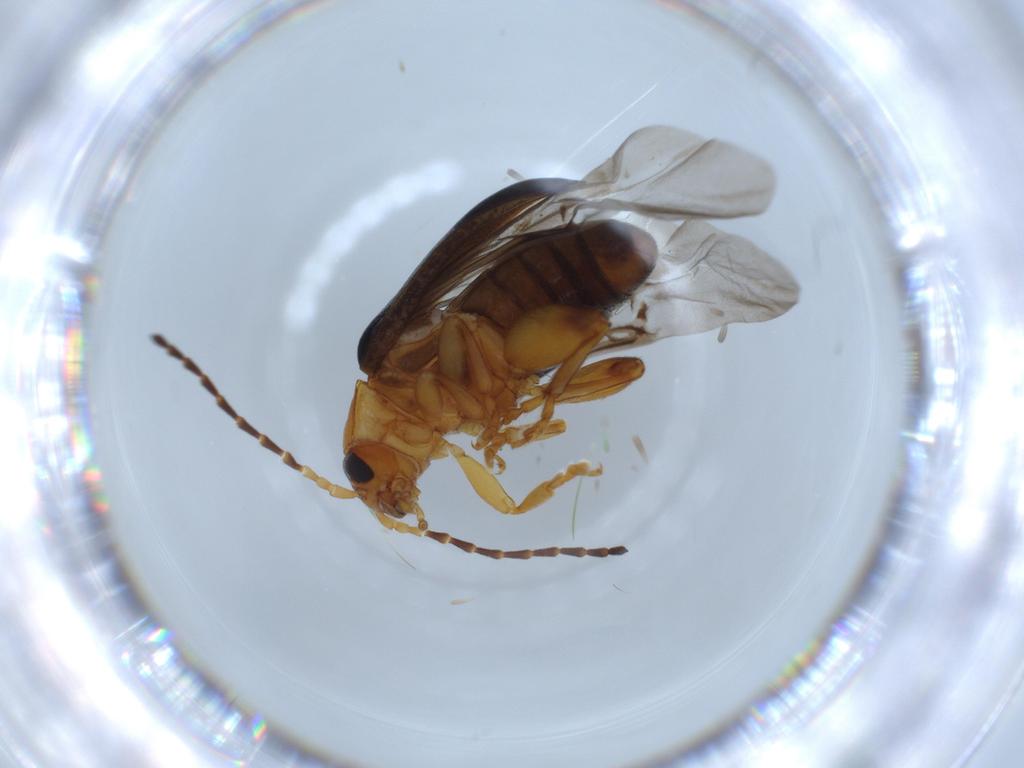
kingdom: Animalia
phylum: Arthropoda
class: Insecta
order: Coleoptera
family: Chrysomelidae
